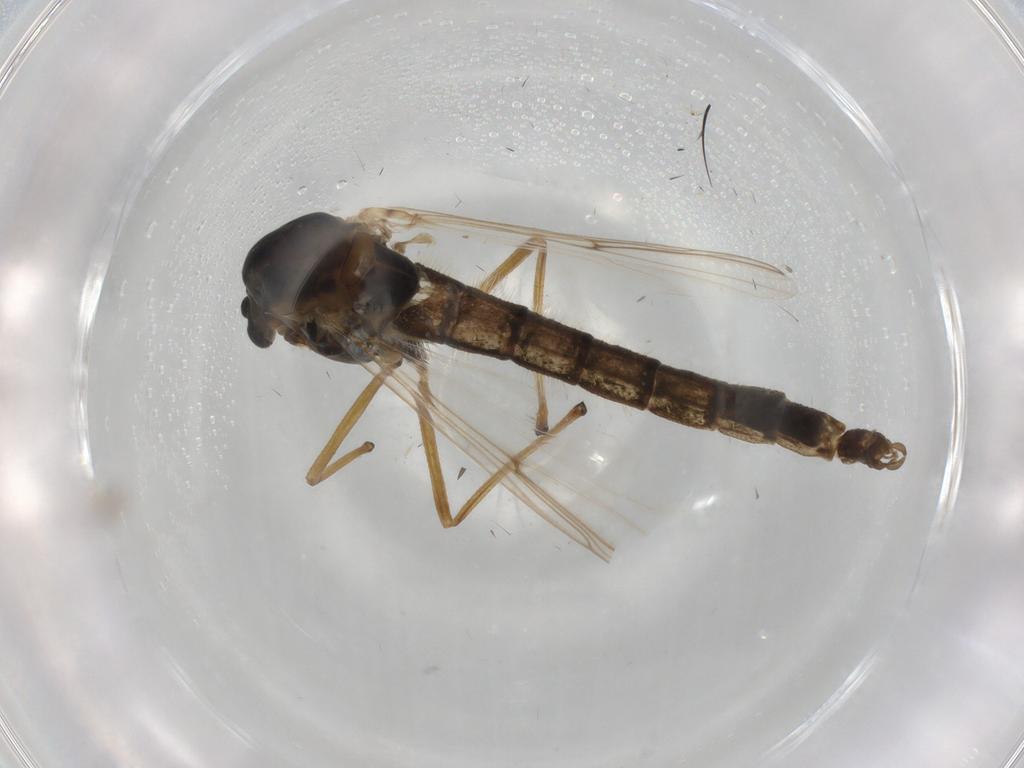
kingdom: Animalia
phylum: Arthropoda
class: Insecta
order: Diptera
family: Chironomidae
